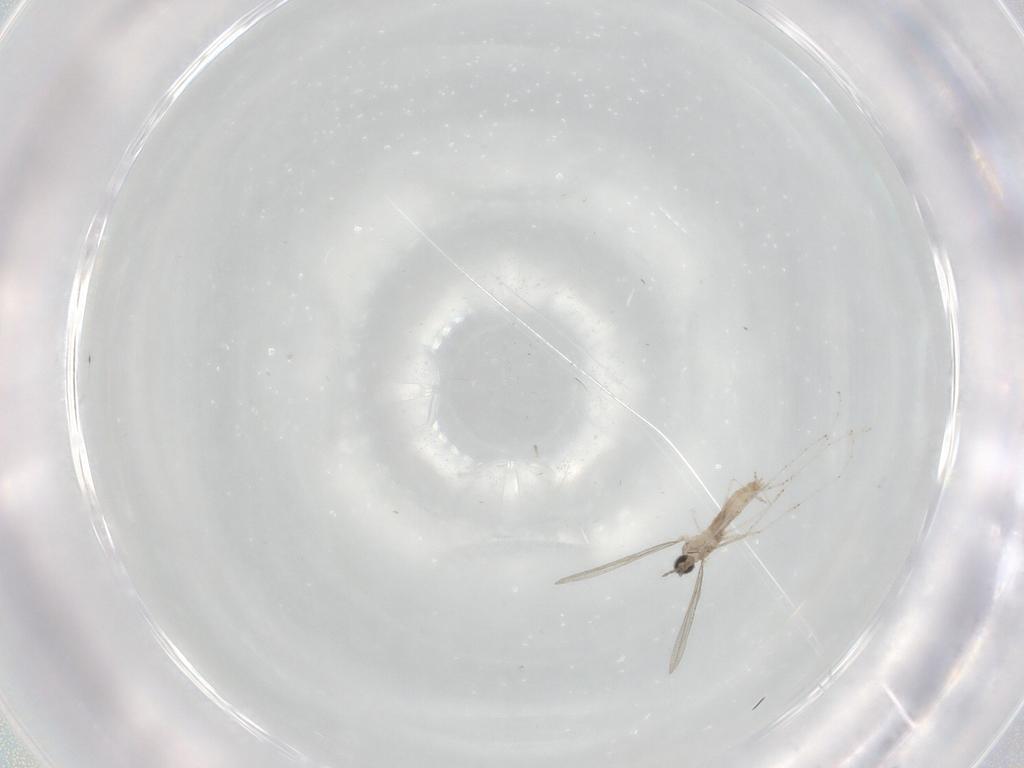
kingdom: Animalia
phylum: Arthropoda
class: Insecta
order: Diptera
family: Cecidomyiidae
